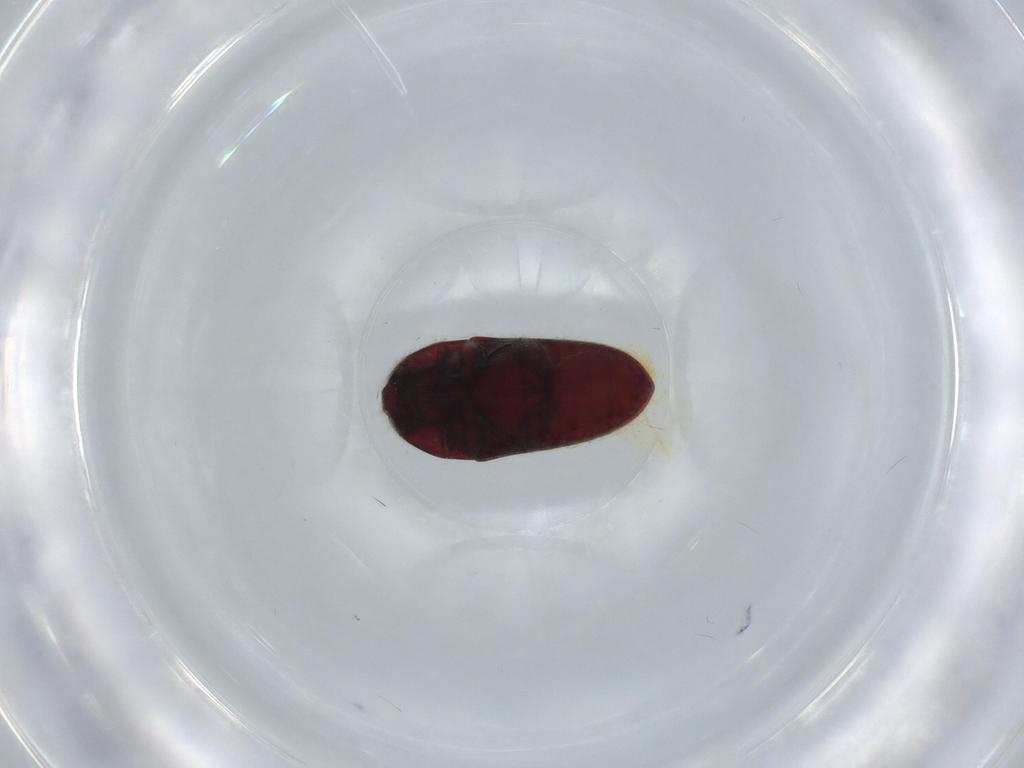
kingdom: Animalia
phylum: Arthropoda
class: Insecta
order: Coleoptera
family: Throscidae
